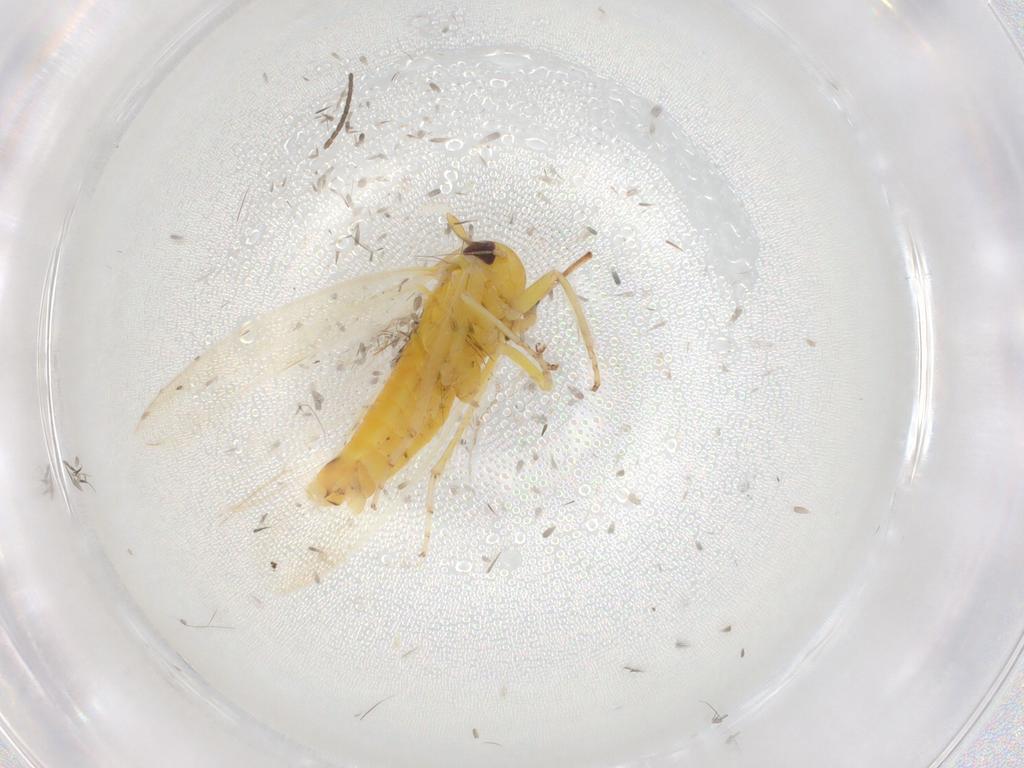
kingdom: Animalia
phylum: Arthropoda
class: Insecta
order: Hemiptera
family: Cicadellidae
